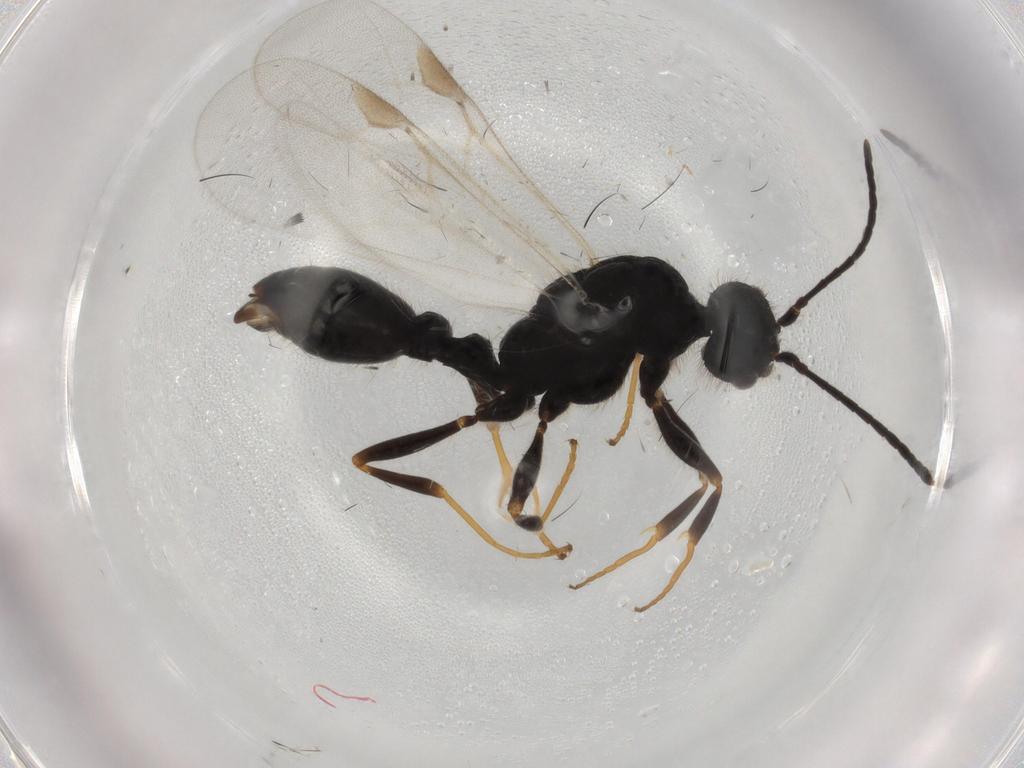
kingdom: Animalia
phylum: Arthropoda
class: Insecta
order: Hymenoptera
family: Formicidae
